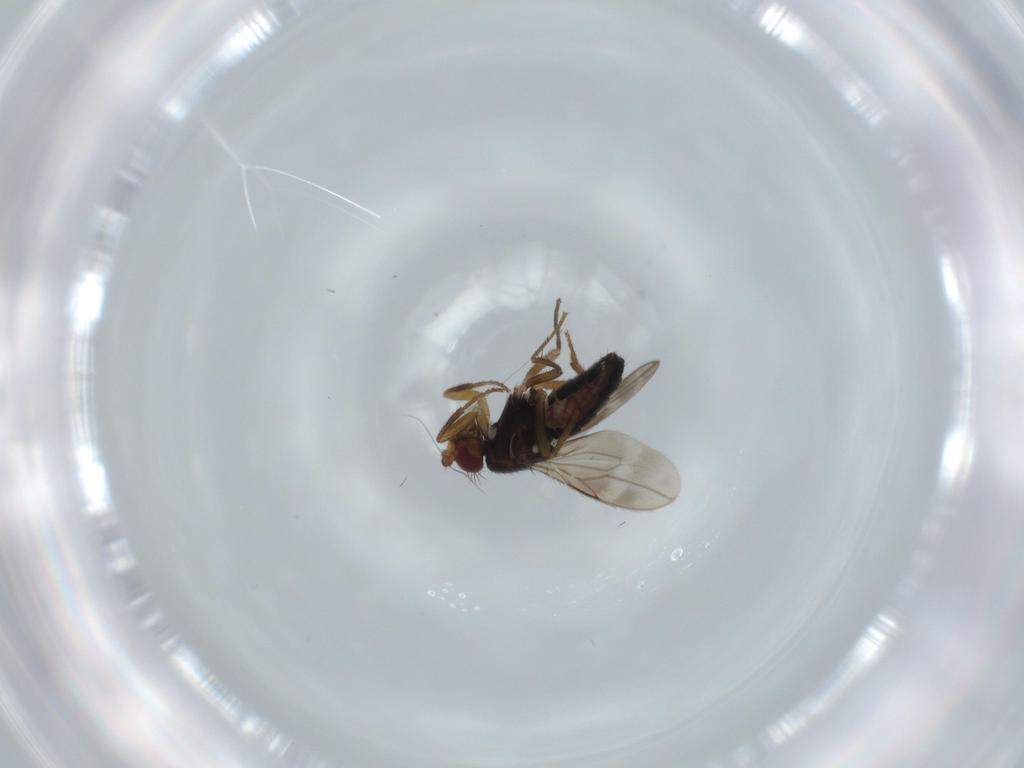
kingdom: Animalia
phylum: Arthropoda
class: Insecta
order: Diptera
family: Sphaeroceridae
